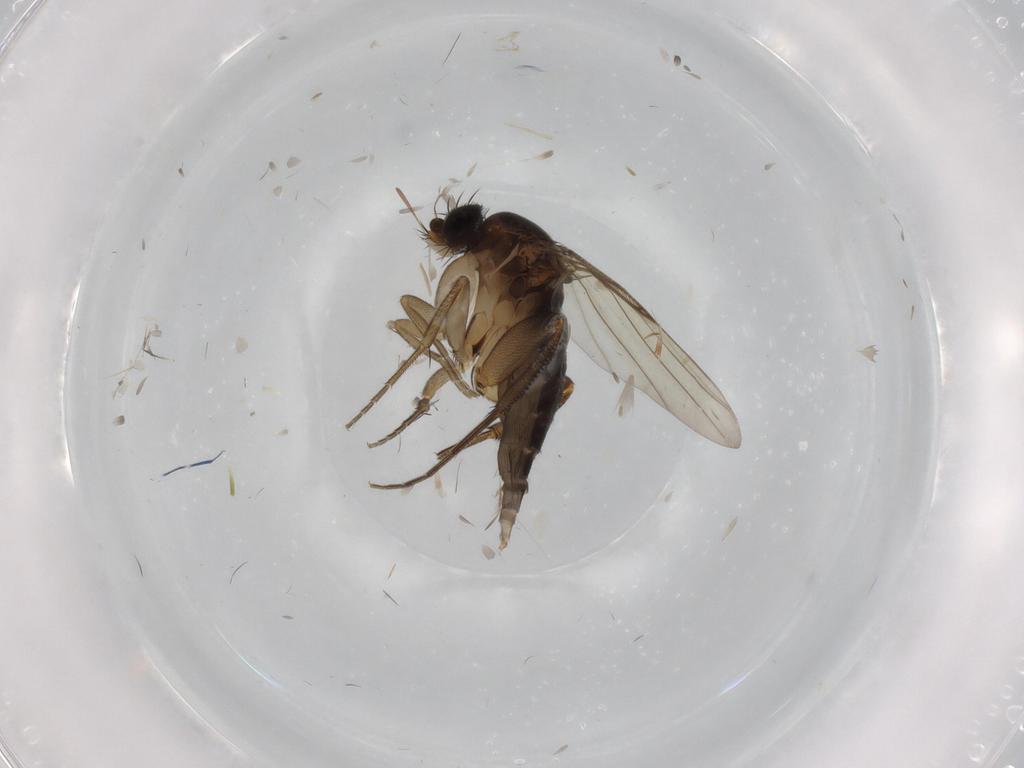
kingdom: Animalia
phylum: Arthropoda
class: Insecta
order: Diptera
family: Phoridae
